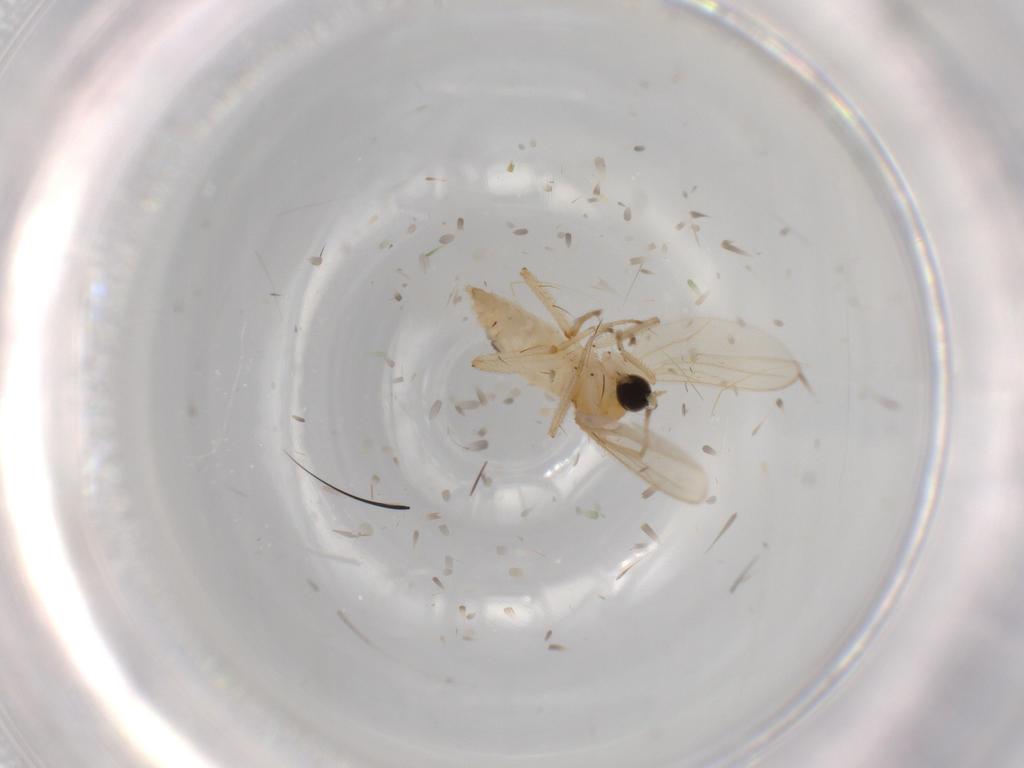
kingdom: Animalia
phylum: Arthropoda
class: Insecta
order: Diptera
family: Hybotidae
